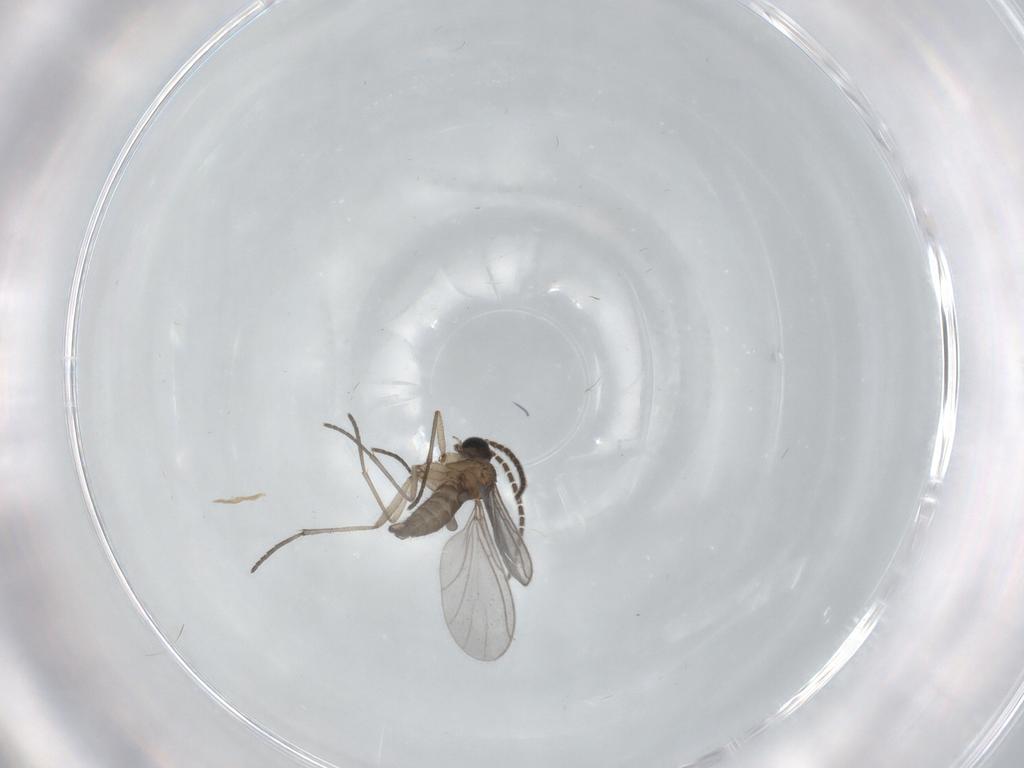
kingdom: Animalia
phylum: Arthropoda
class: Insecta
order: Diptera
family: Sciaridae
